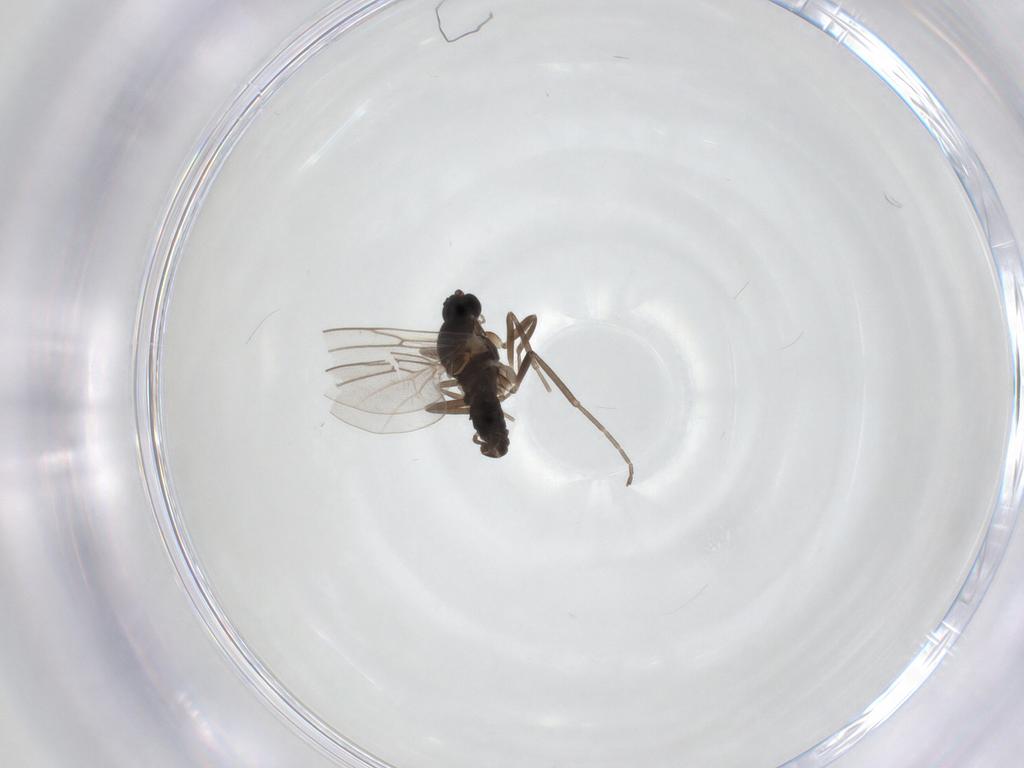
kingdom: Animalia
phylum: Arthropoda
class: Insecta
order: Diptera
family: Cecidomyiidae
